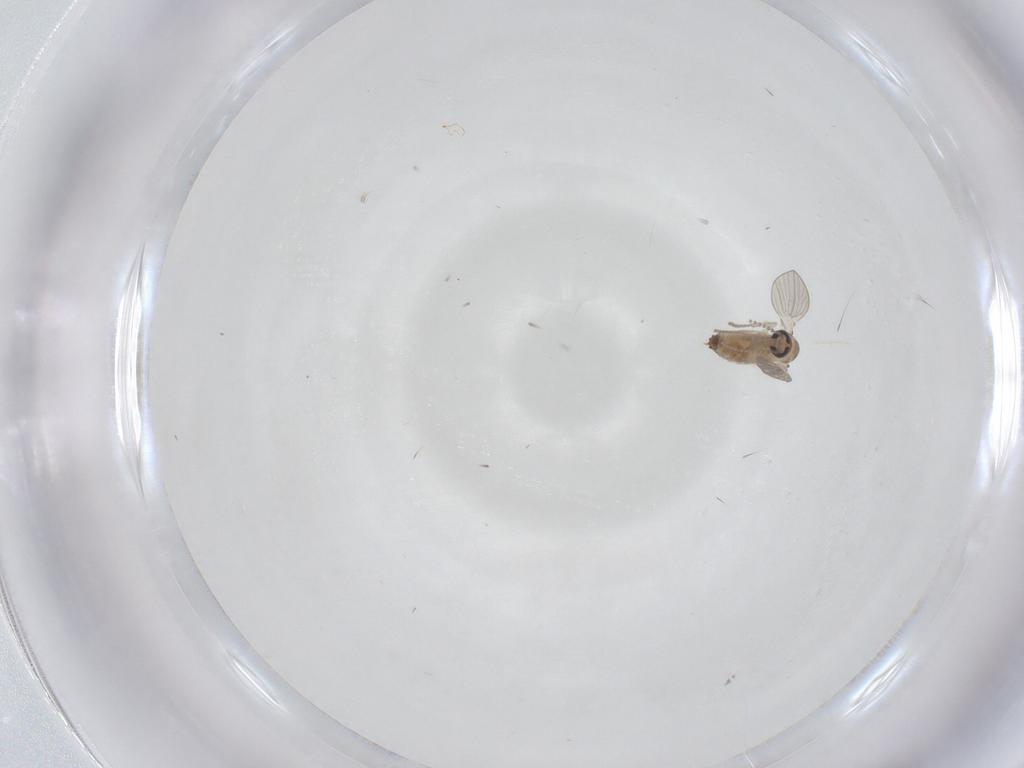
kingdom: Animalia
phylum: Arthropoda
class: Insecta
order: Diptera
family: Psychodidae
